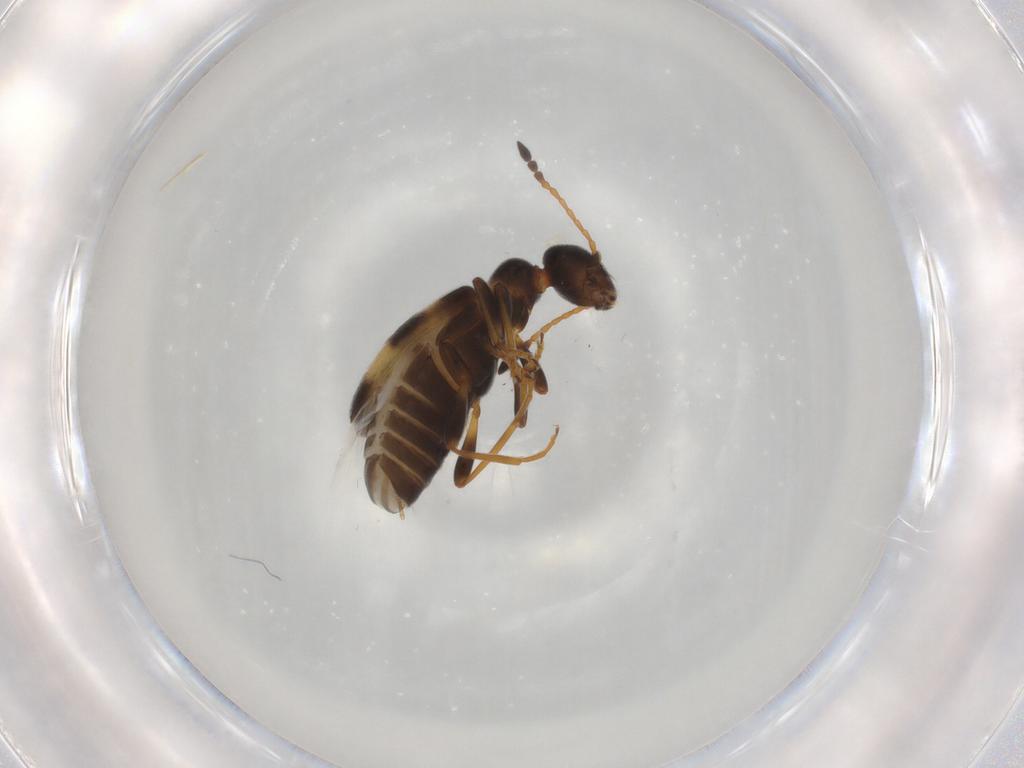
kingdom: Animalia
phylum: Arthropoda
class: Insecta
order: Coleoptera
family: Anthicidae
